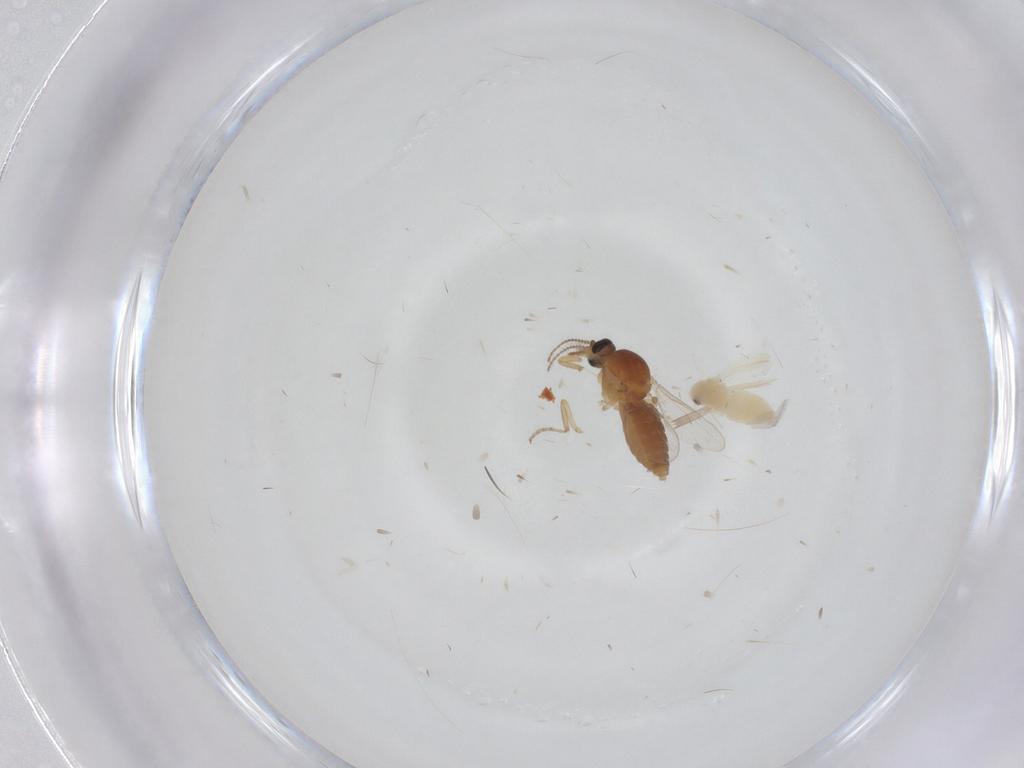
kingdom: Animalia
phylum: Arthropoda
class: Insecta
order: Diptera
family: Ceratopogonidae
